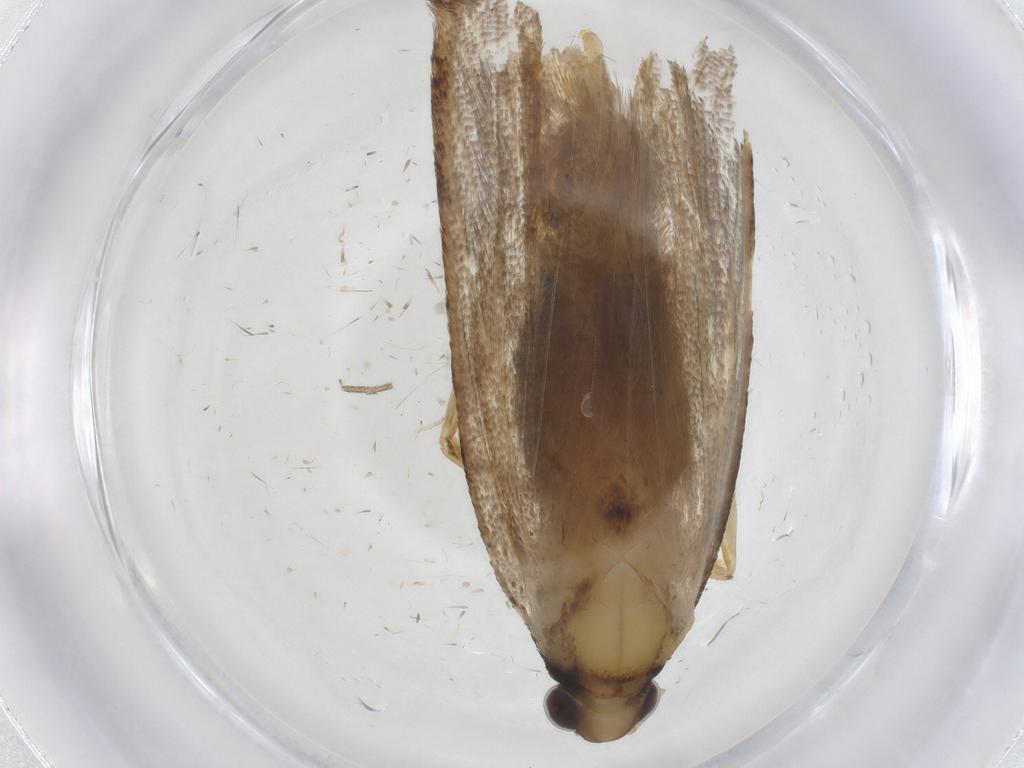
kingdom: Animalia
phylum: Arthropoda
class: Insecta
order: Lepidoptera
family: Lecithoceridae
